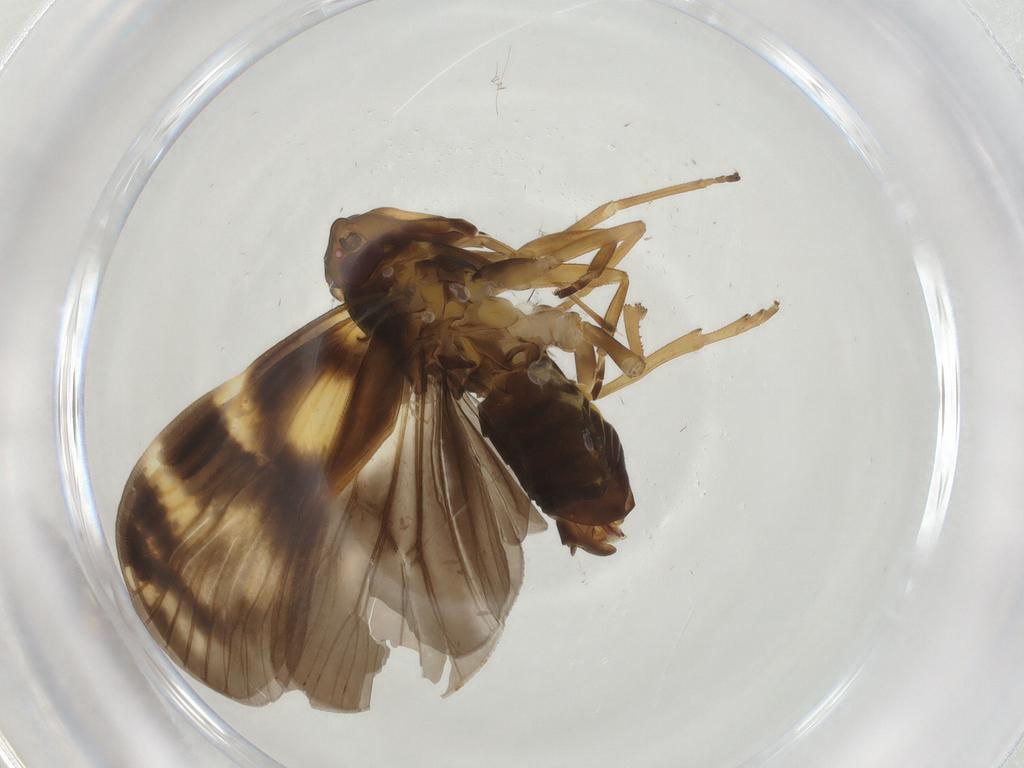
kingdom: Animalia
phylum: Arthropoda
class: Insecta
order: Hemiptera
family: Cixiidae
